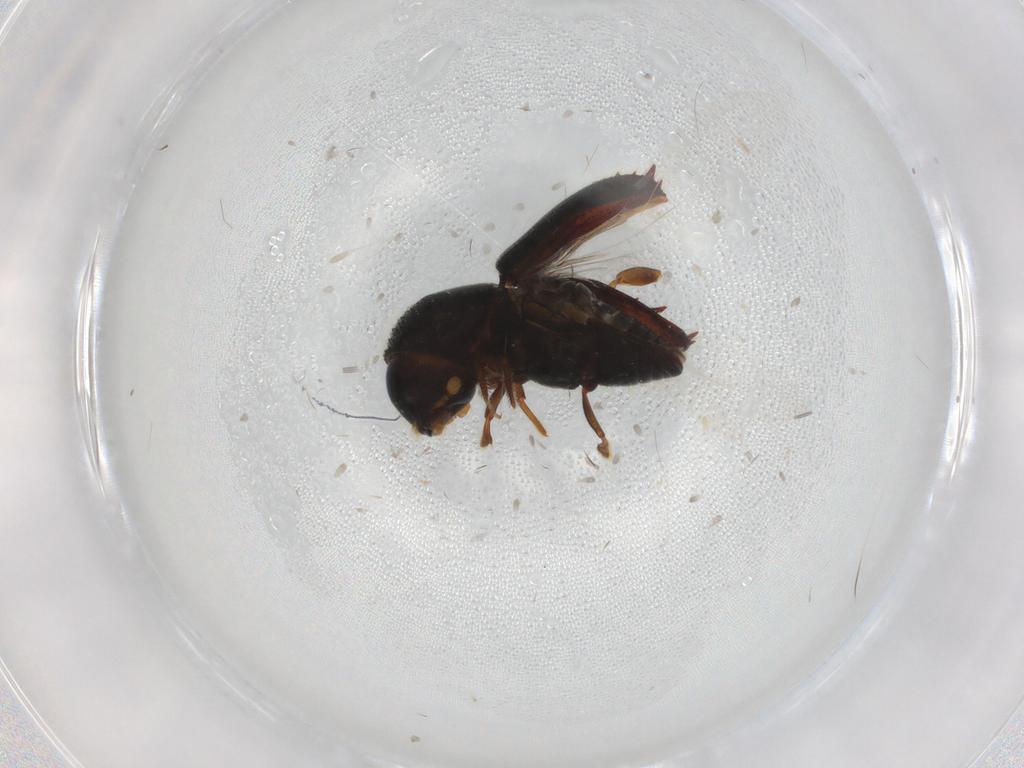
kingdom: Animalia
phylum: Arthropoda
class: Insecta
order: Coleoptera
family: Curculionidae
